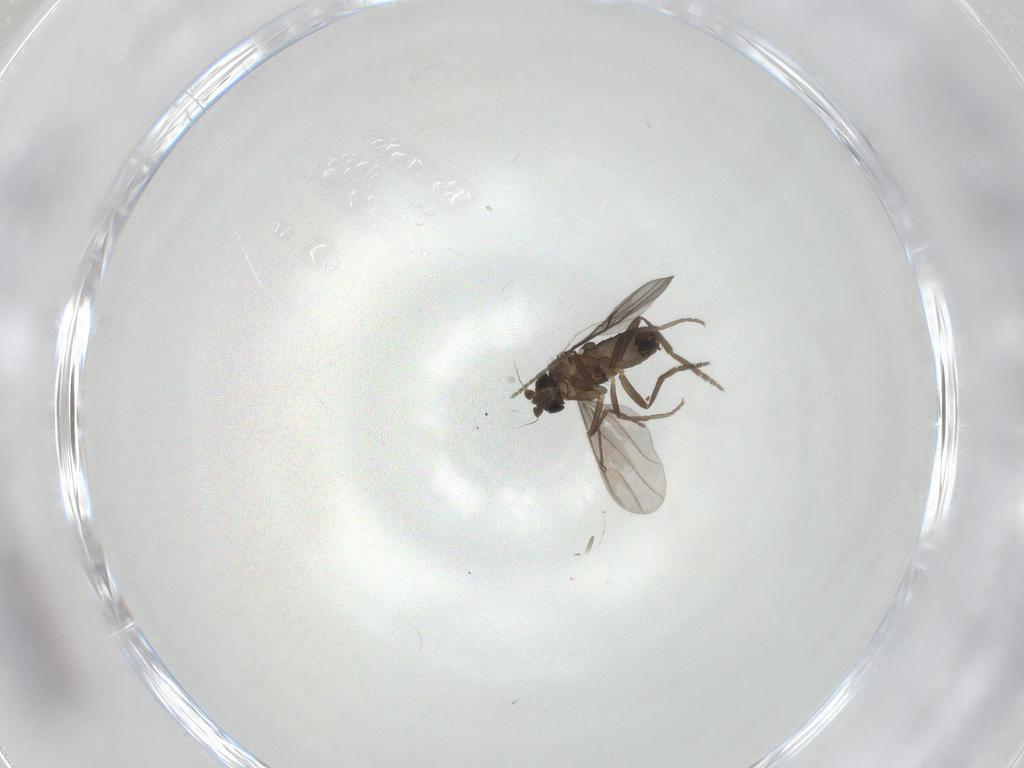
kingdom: Animalia
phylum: Arthropoda
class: Insecta
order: Diptera
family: Phoridae
